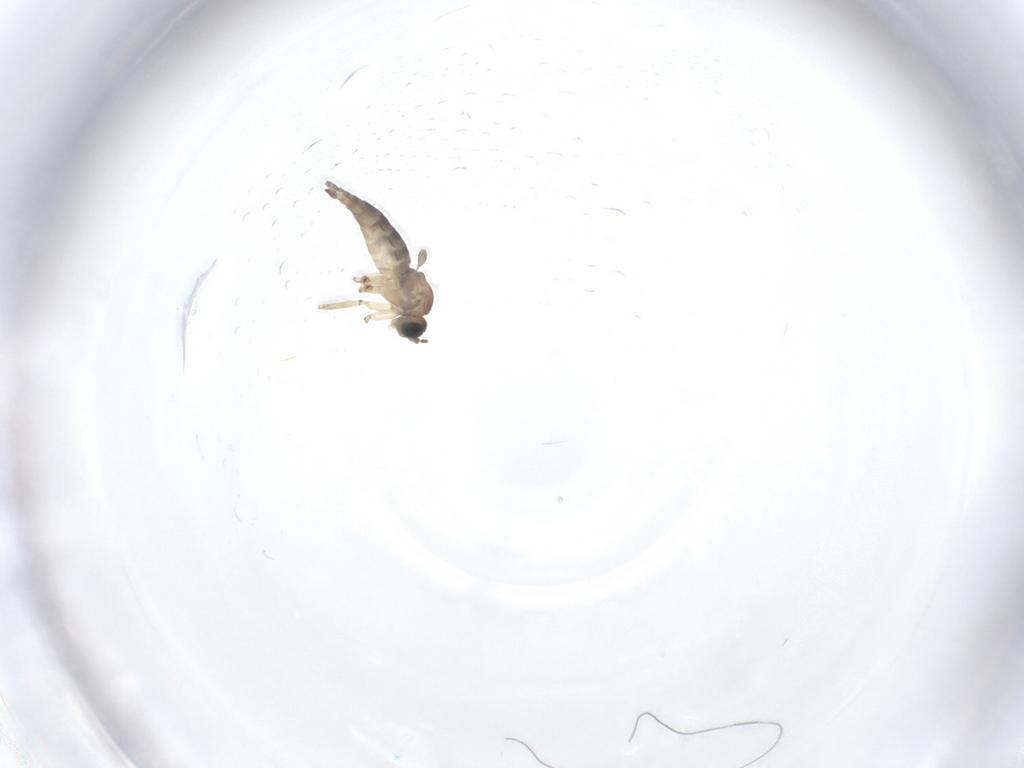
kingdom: Animalia
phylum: Arthropoda
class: Insecta
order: Diptera
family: Sciaridae
